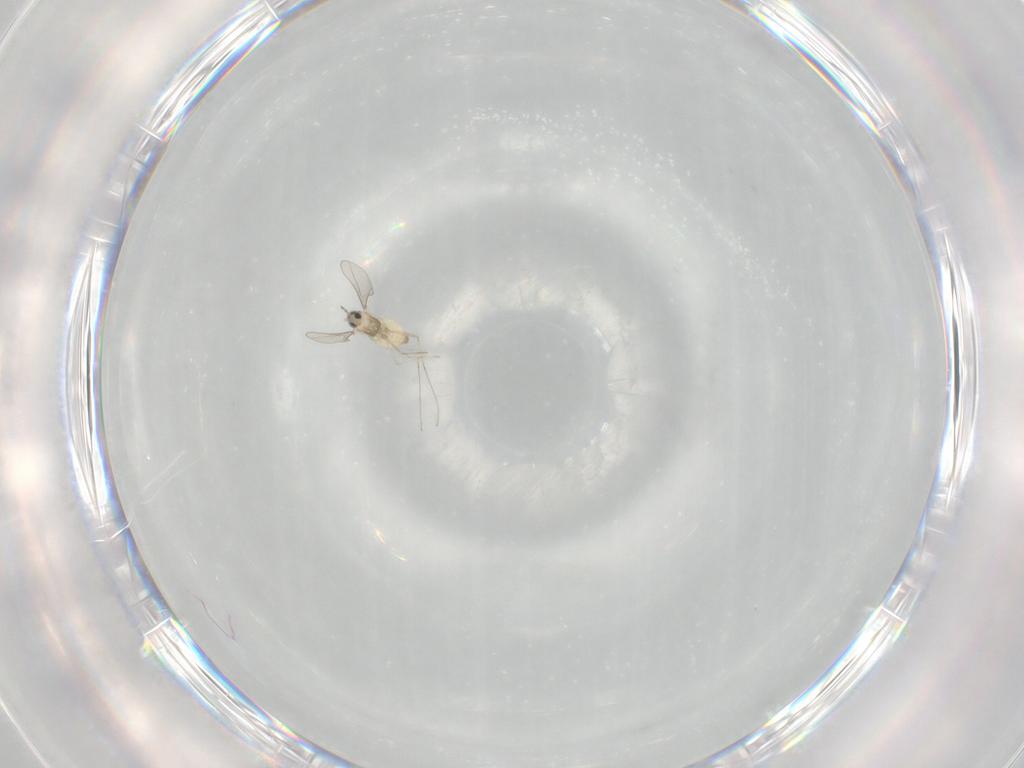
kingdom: Animalia
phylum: Arthropoda
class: Insecta
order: Diptera
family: Cecidomyiidae
